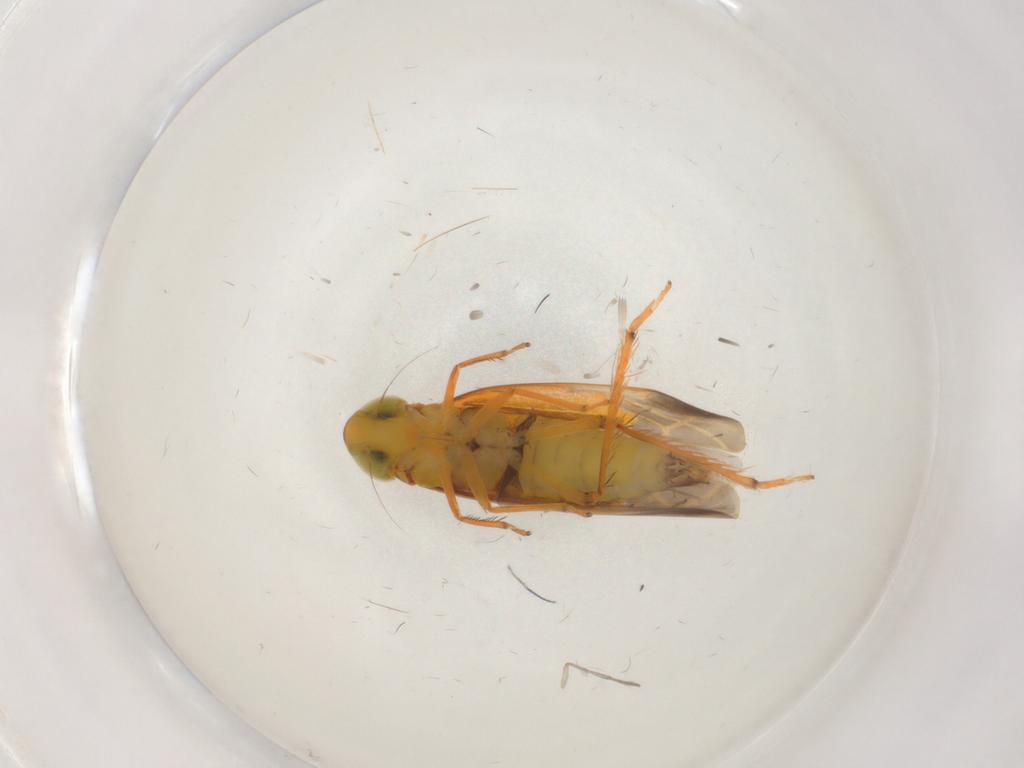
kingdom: Animalia
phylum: Arthropoda
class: Insecta
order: Hemiptera
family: Cicadellidae
